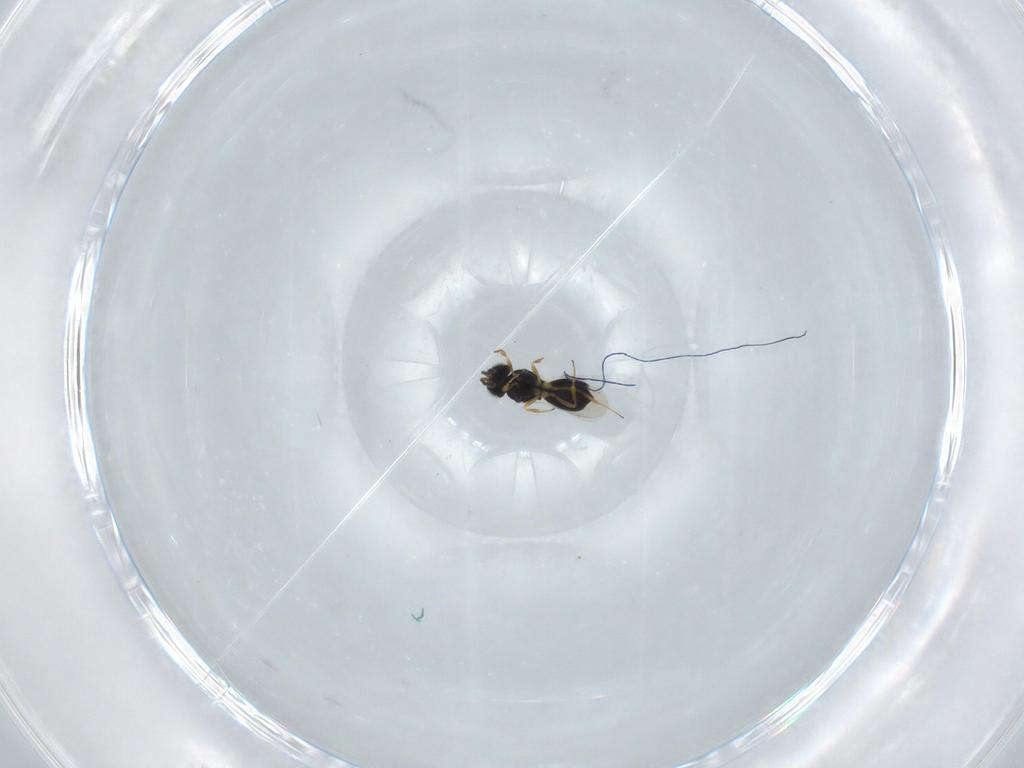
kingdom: Animalia
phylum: Arthropoda
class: Insecta
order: Hymenoptera
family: Scelionidae
